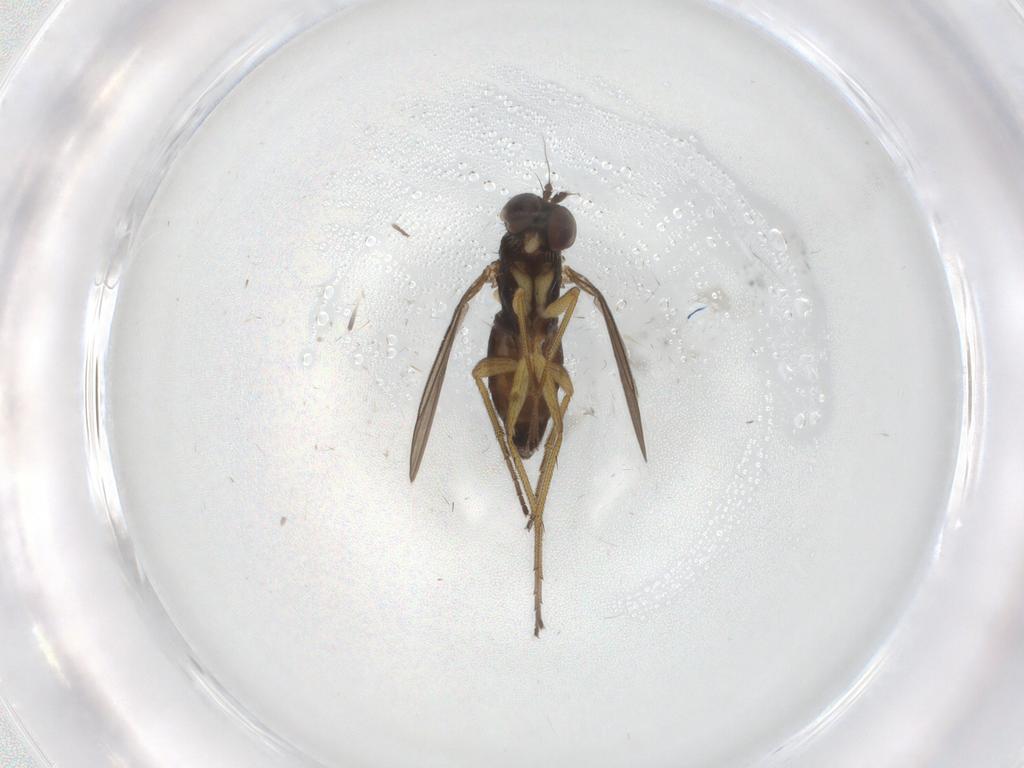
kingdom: Animalia
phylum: Arthropoda
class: Insecta
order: Diptera
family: Dolichopodidae
